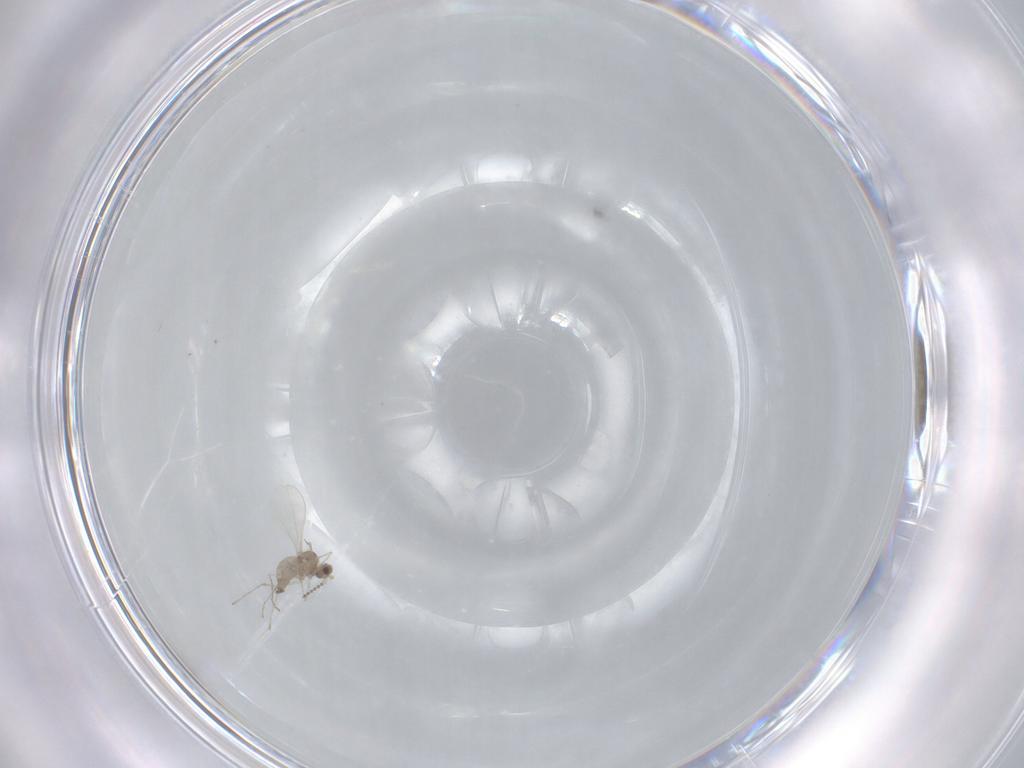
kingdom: Animalia
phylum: Arthropoda
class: Insecta
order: Diptera
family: Cecidomyiidae
